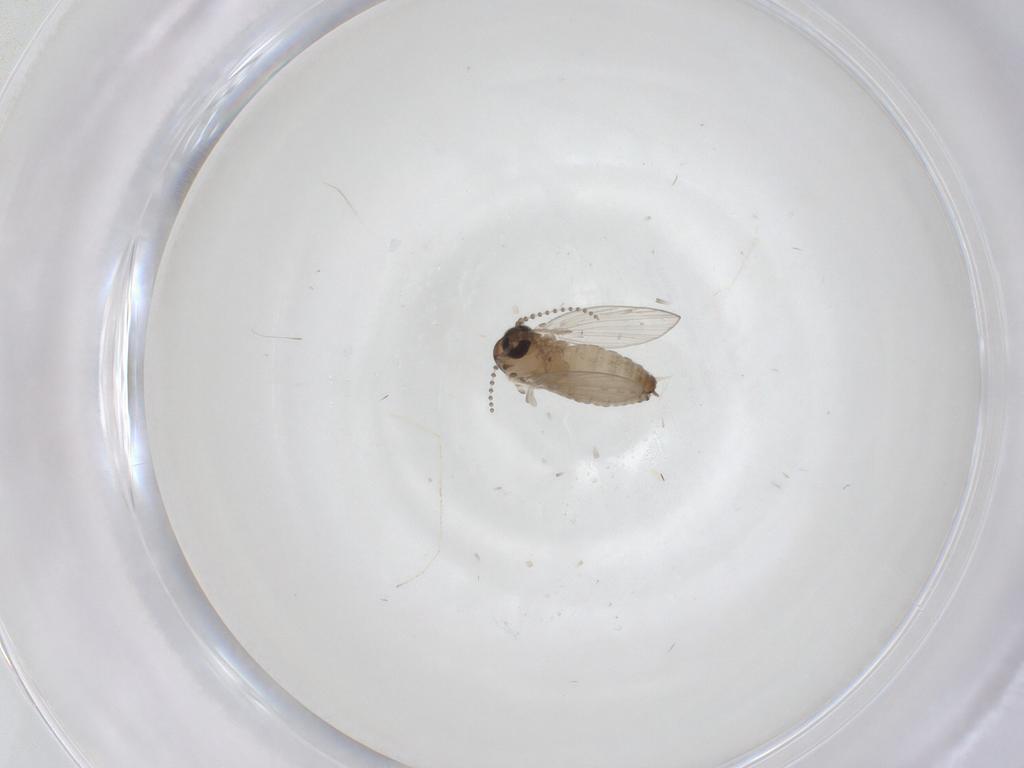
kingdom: Animalia
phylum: Arthropoda
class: Insecta
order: Diptera
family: Psychodidae
